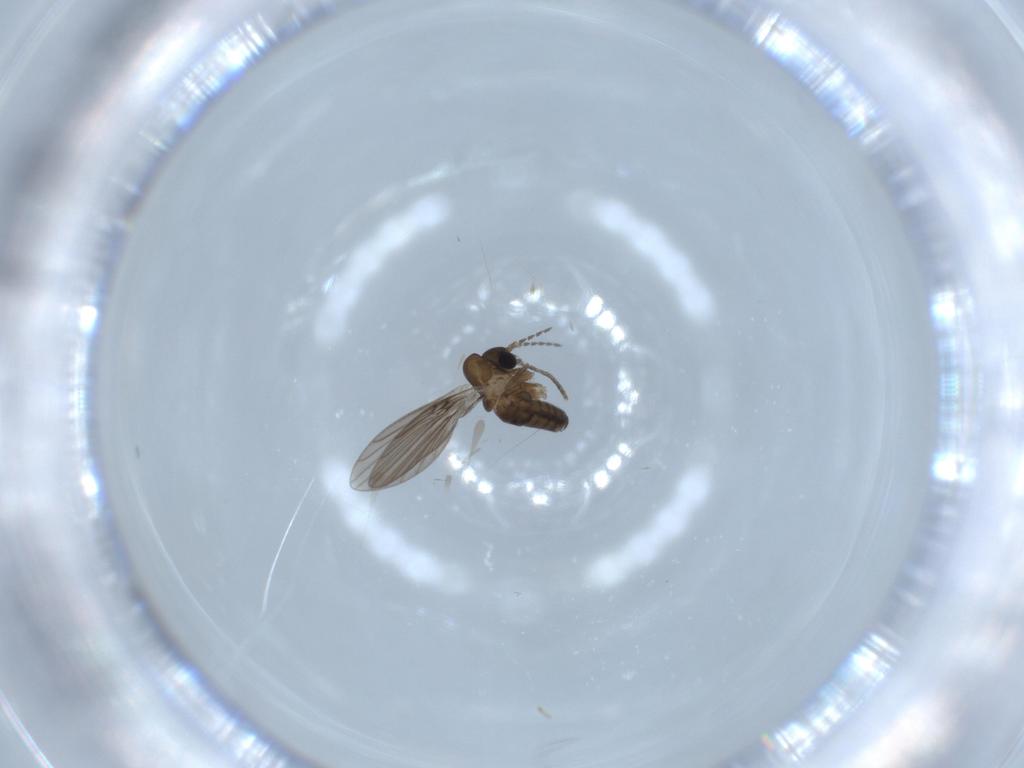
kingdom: Animalia
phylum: Arthropoda
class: Insecta
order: Diptera
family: Psychodidae
